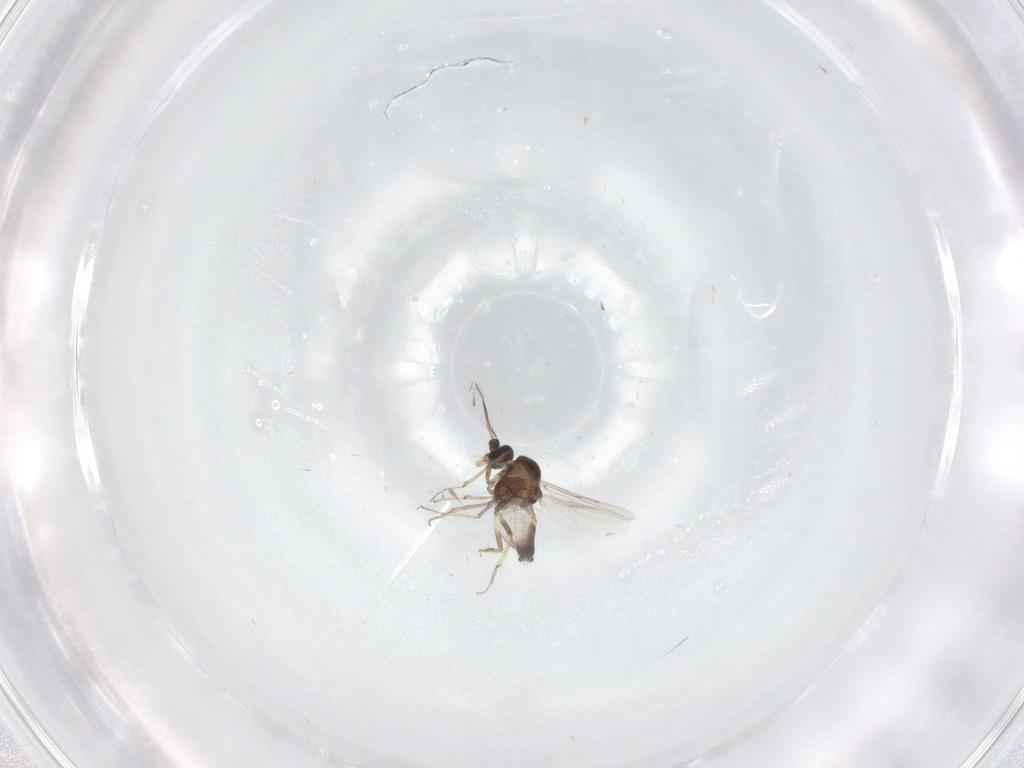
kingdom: Animalia
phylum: Arthropoda
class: Insecta
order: Diptera
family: Ceratopogonidae
